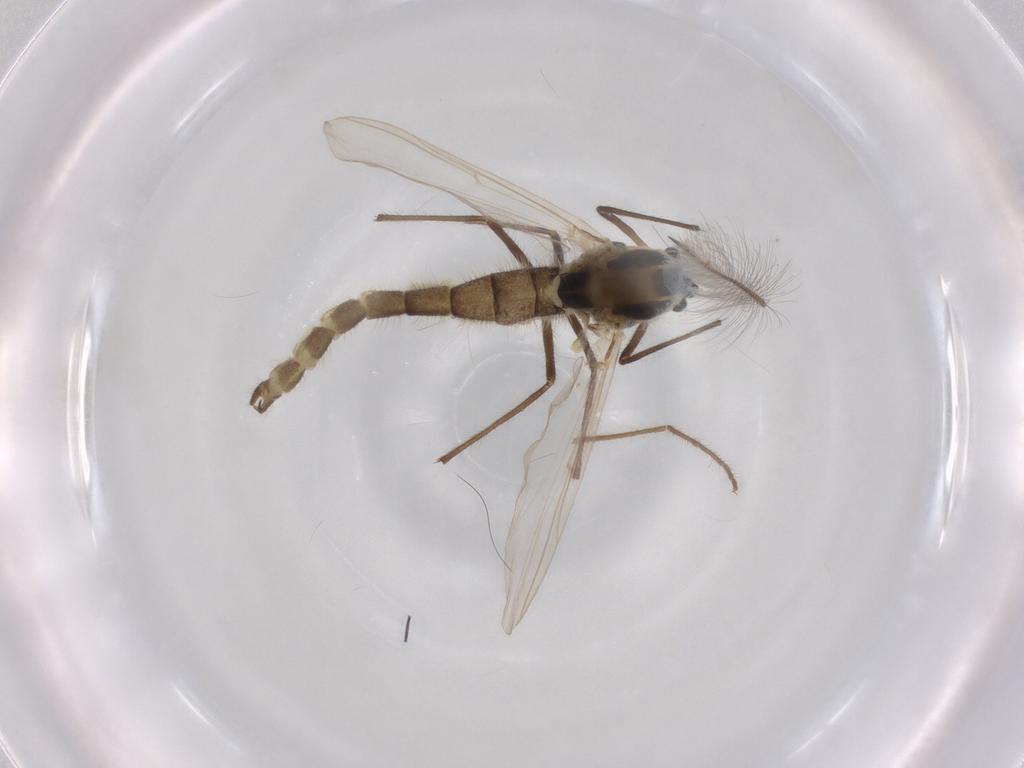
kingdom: Animalia
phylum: Arthropoda
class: Insecta
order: Diptera
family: Chironomidae
